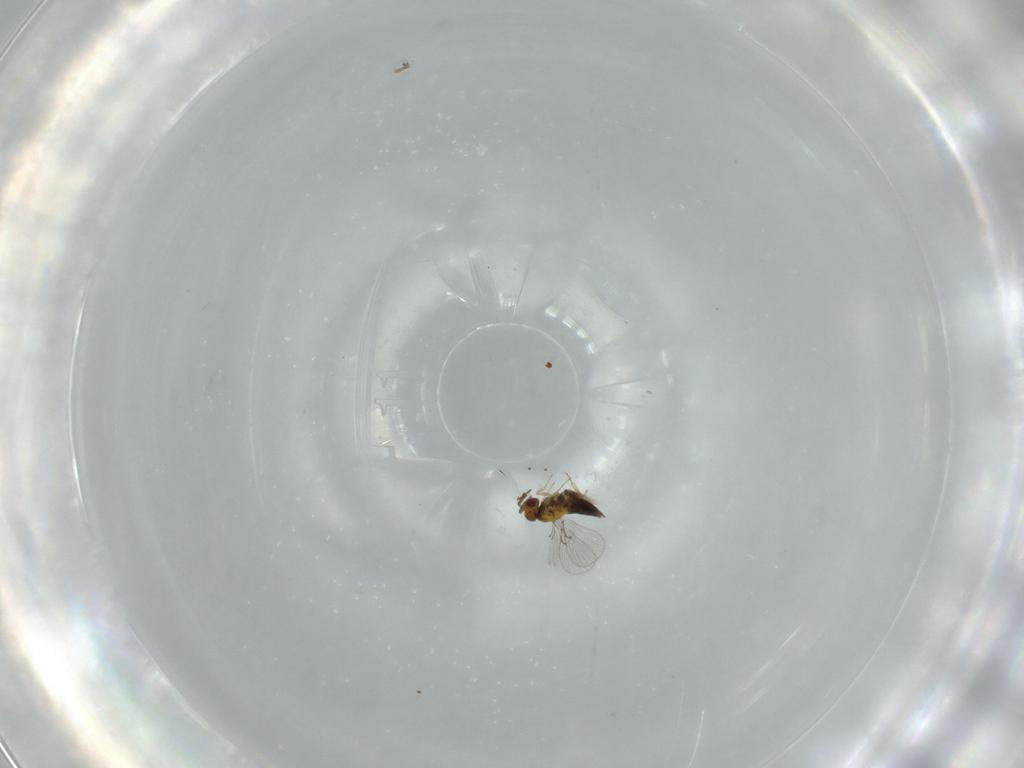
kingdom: Animalia
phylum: Arthropoda
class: Insecta
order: Hymenoptera
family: Trichogrammatidae
